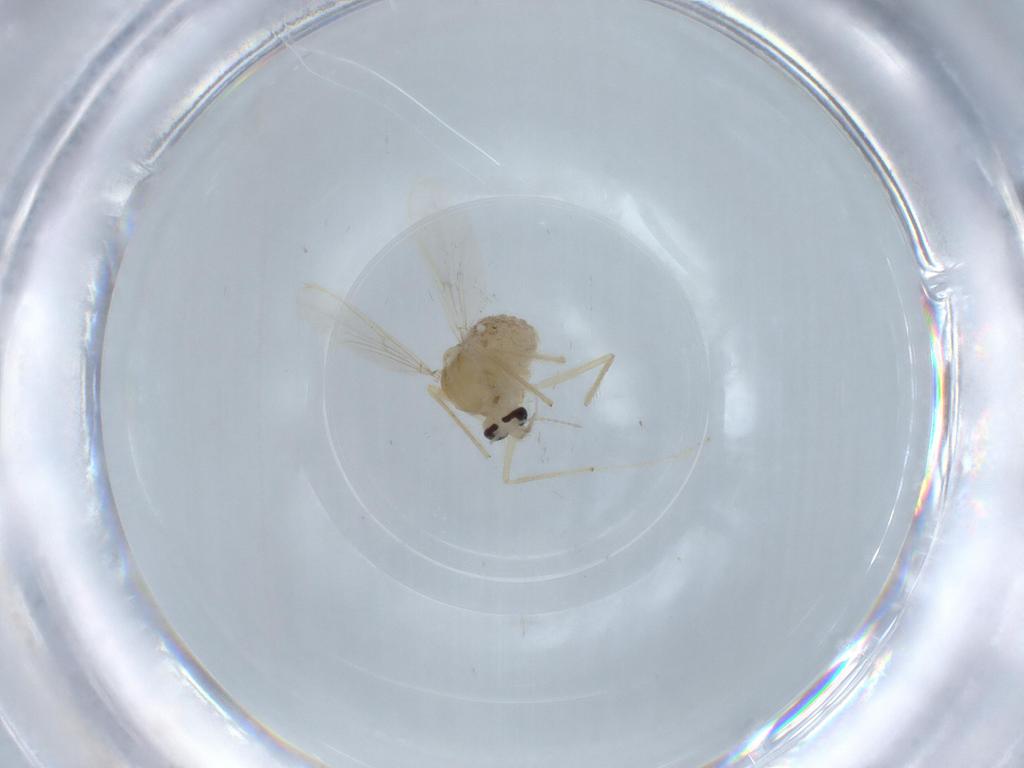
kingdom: Animalia
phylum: Arthropoda
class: Insecta
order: Diptera
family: Chironomidae
